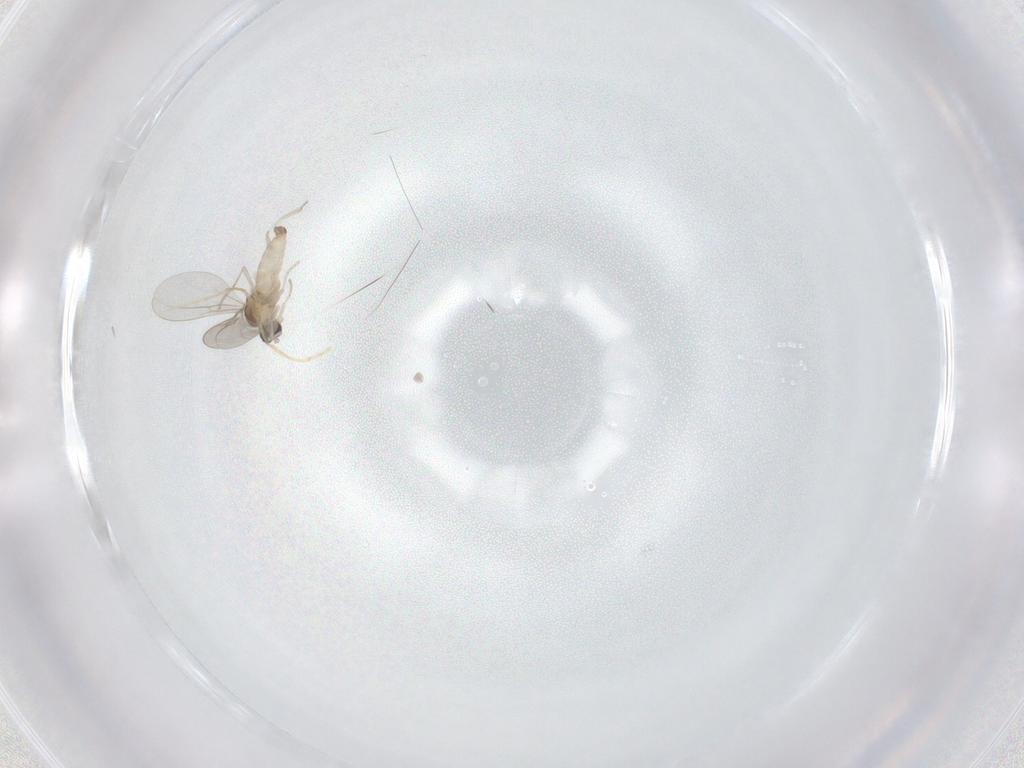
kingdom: Animalia
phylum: Arthropoda
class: Insecta
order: Diptera
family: Cecidomyiidae
